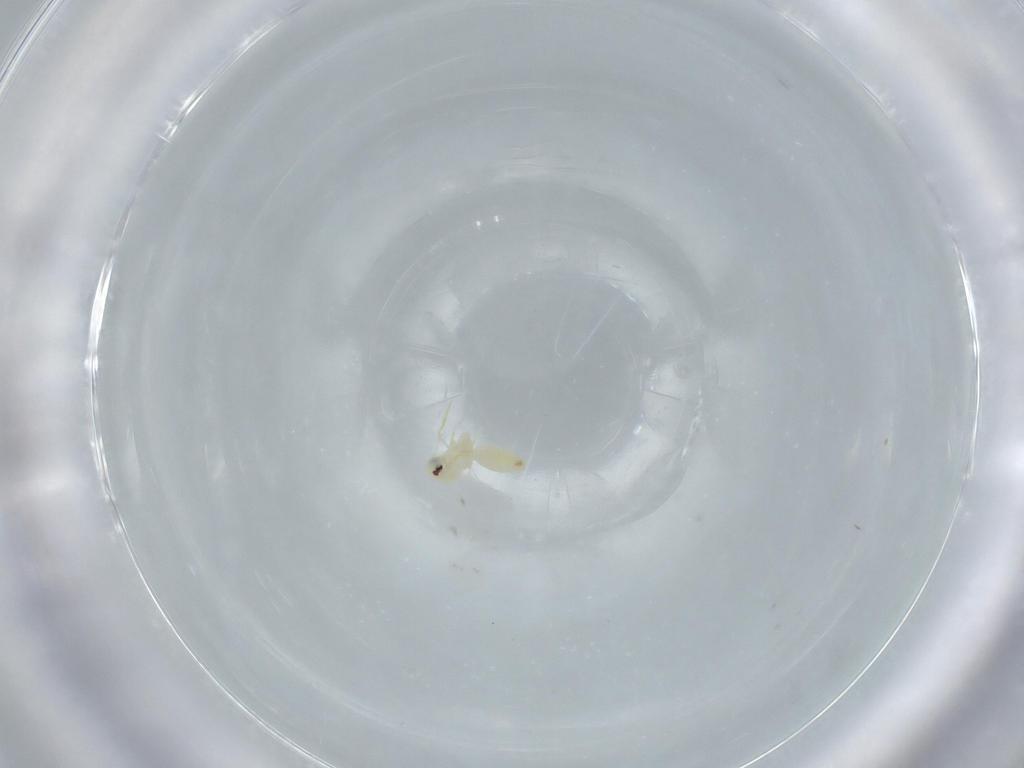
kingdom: Animalia
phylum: Arthropoda
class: Insecta
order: Hemiptera
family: Aleyrodidae
